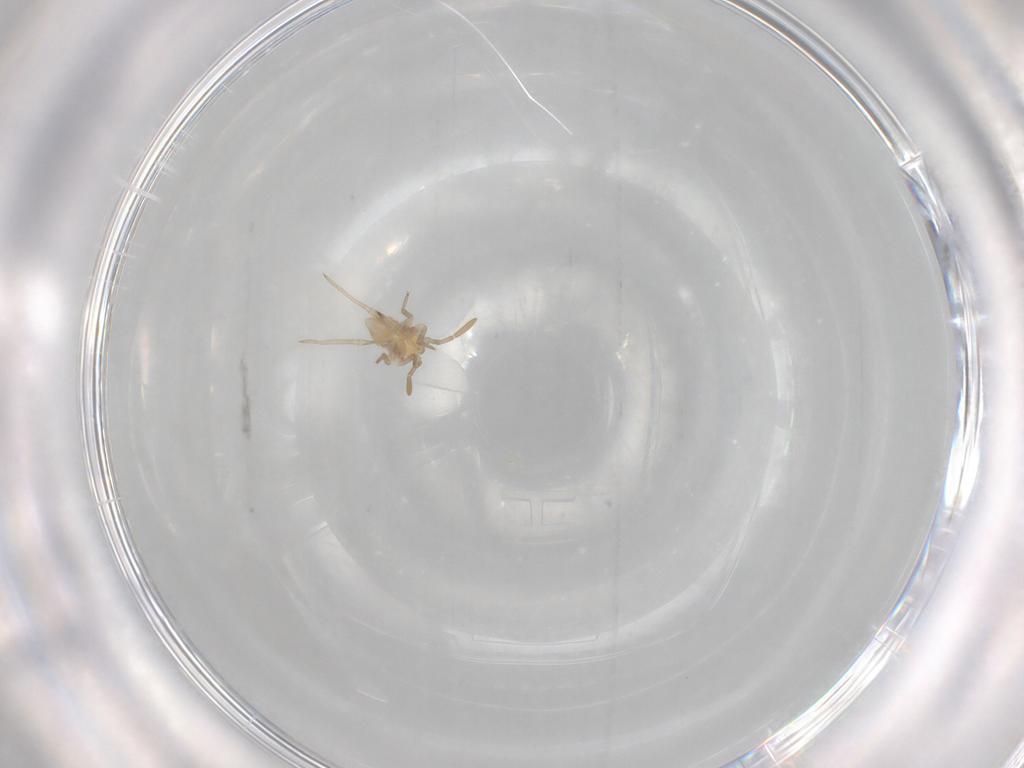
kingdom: Animalia
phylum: Arthropoda
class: Insecta
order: Hemiptera
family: Miridae
